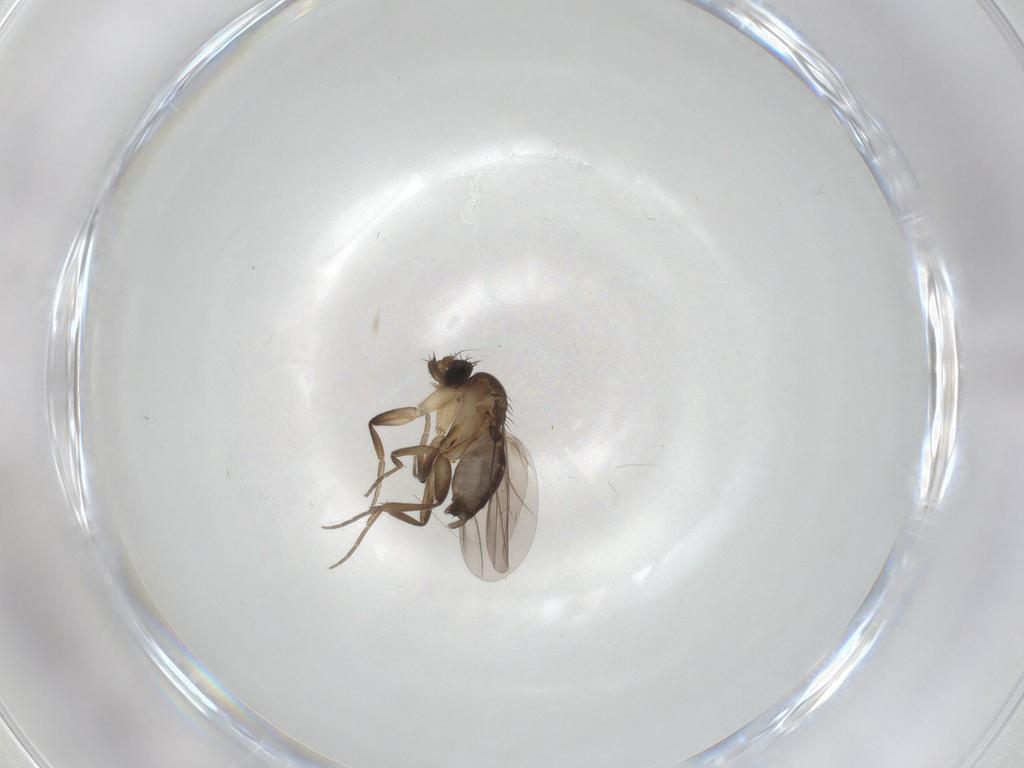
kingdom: Animalia
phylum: Arthropoda
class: Insecta
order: Diptera
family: Phoridae
